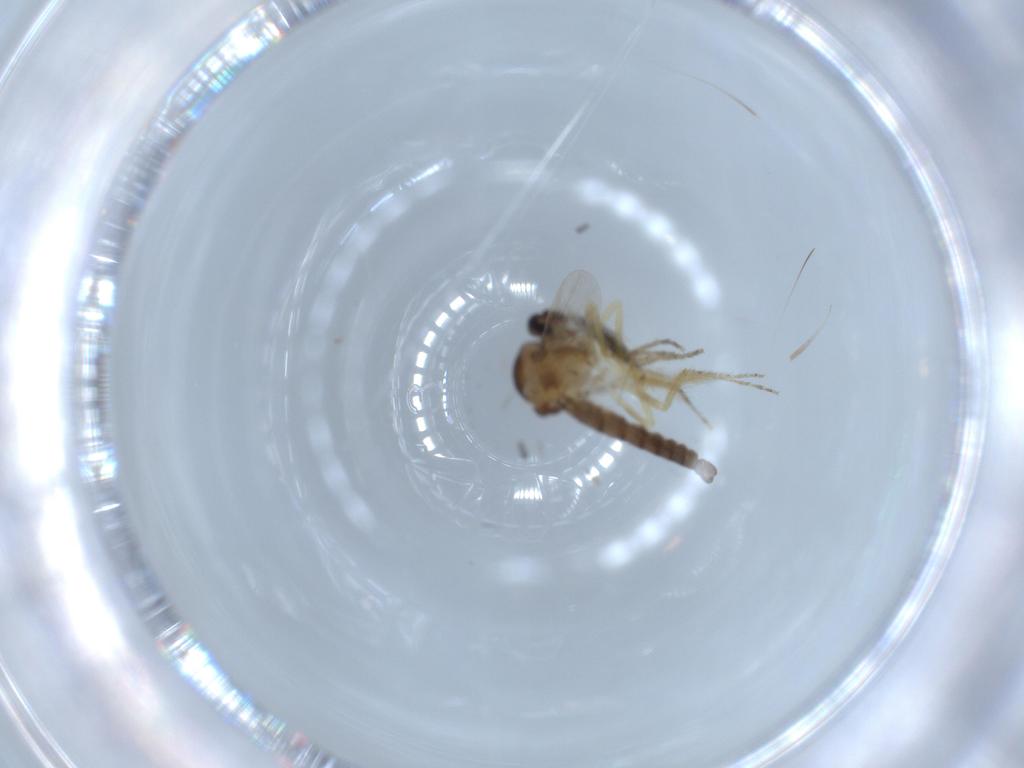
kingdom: Animalia
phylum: Arthropoda
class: Insecta
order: Diptera
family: Ceratopogonidae
